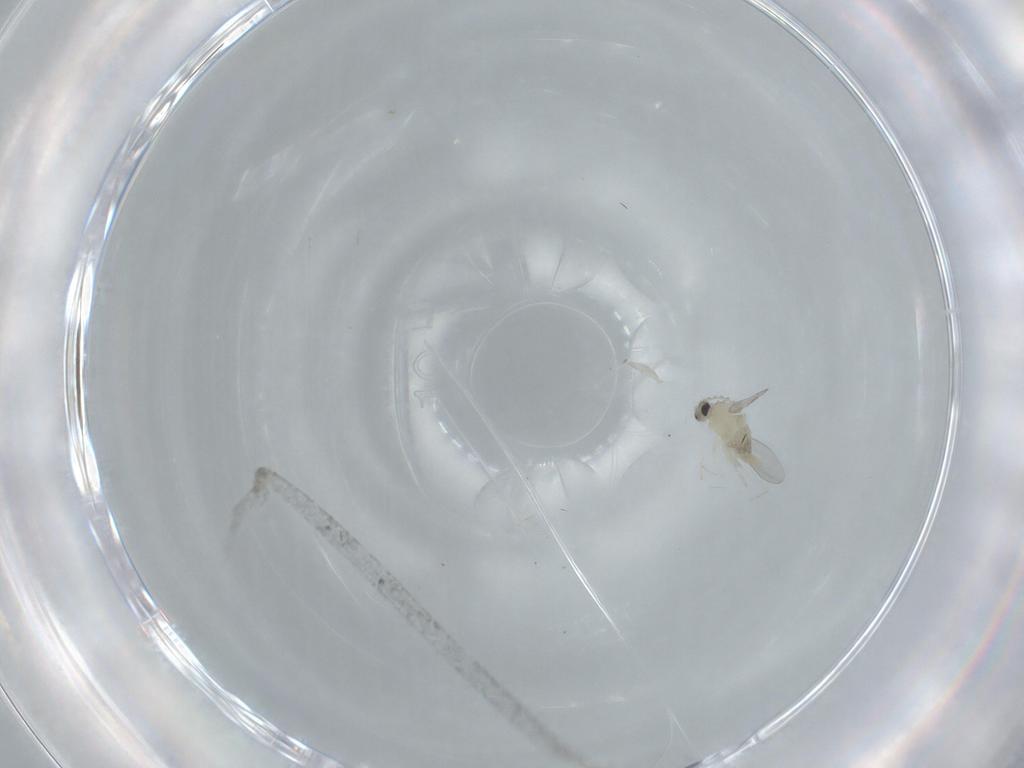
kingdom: Animalia
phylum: Arthropoda
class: Insecta
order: Diptera
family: Cecidomyiidae
